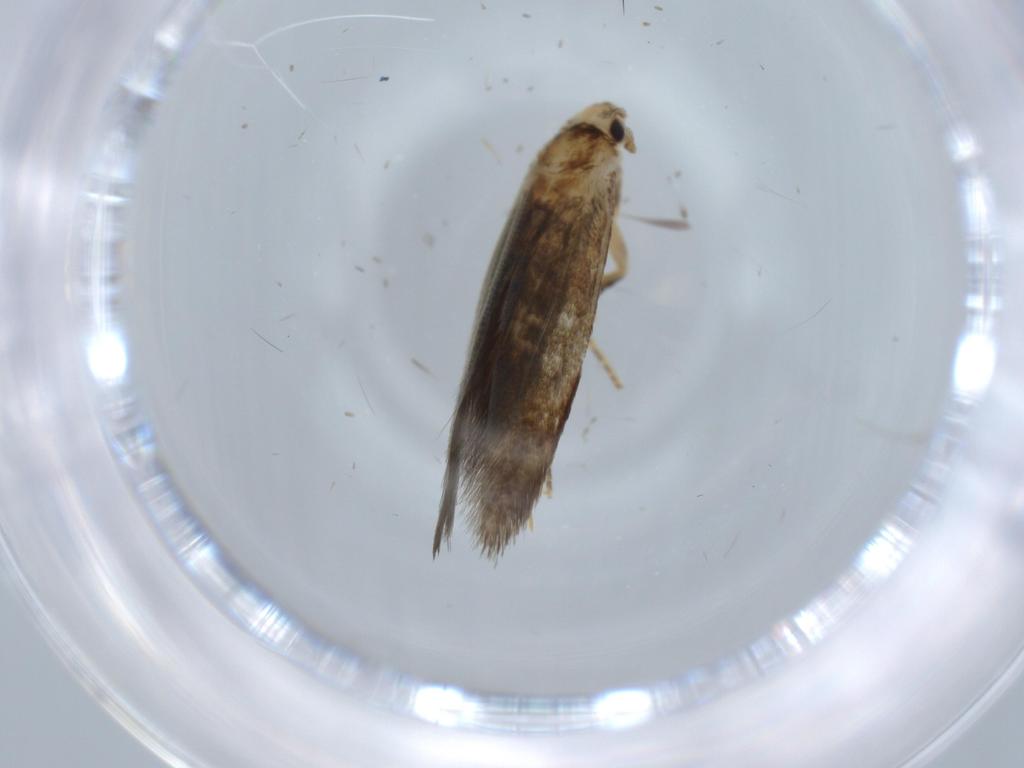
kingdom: Animalia
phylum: Arthropoda
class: Insecta
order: Lepidoptera
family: Tineidae
